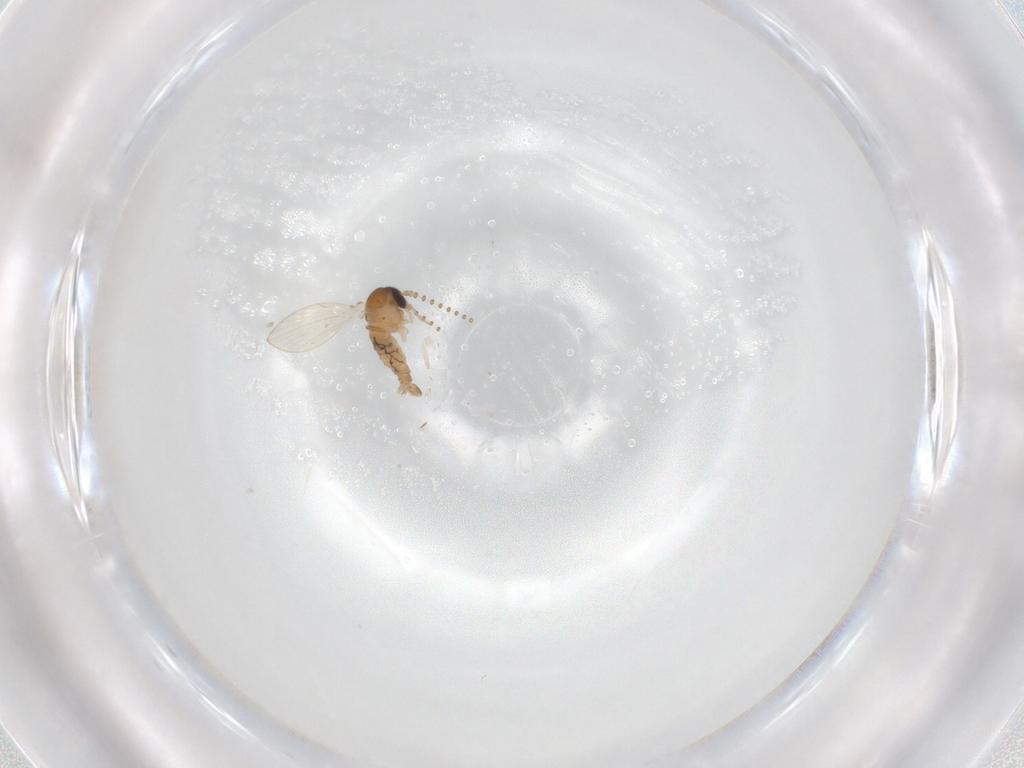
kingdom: Animalia
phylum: Arthropoda
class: Insecta
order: Diptera
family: Psychodidae
